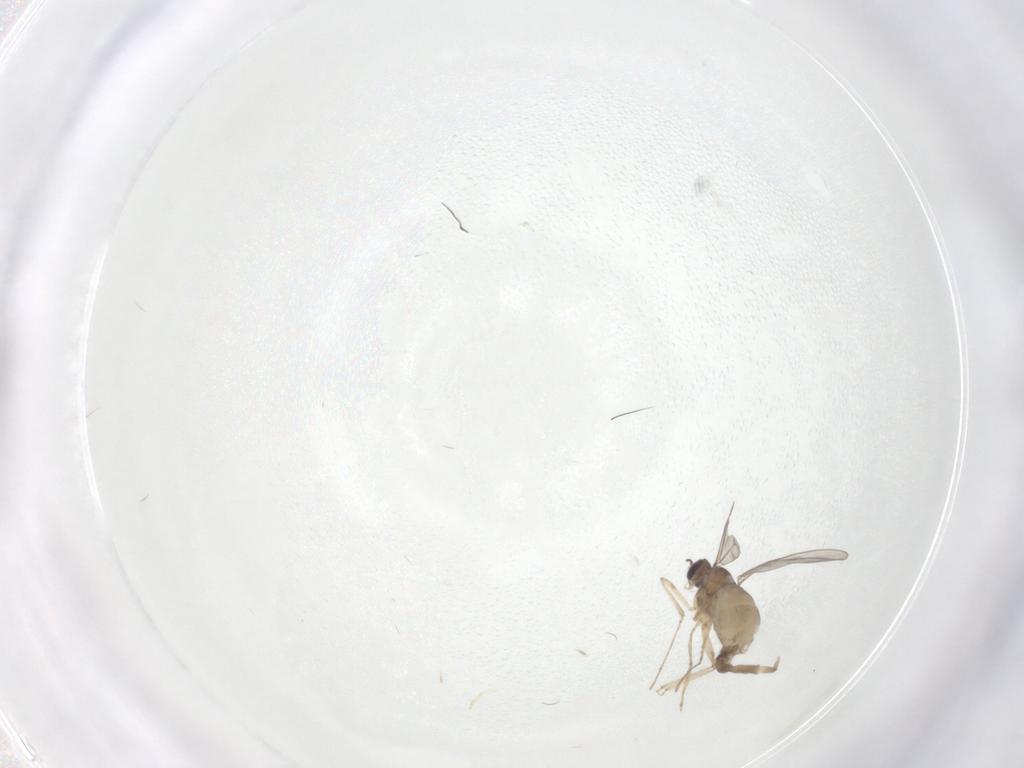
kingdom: Animalia
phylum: Arthropoda
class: Insecta
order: Diptera
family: Cecidomyiidae
